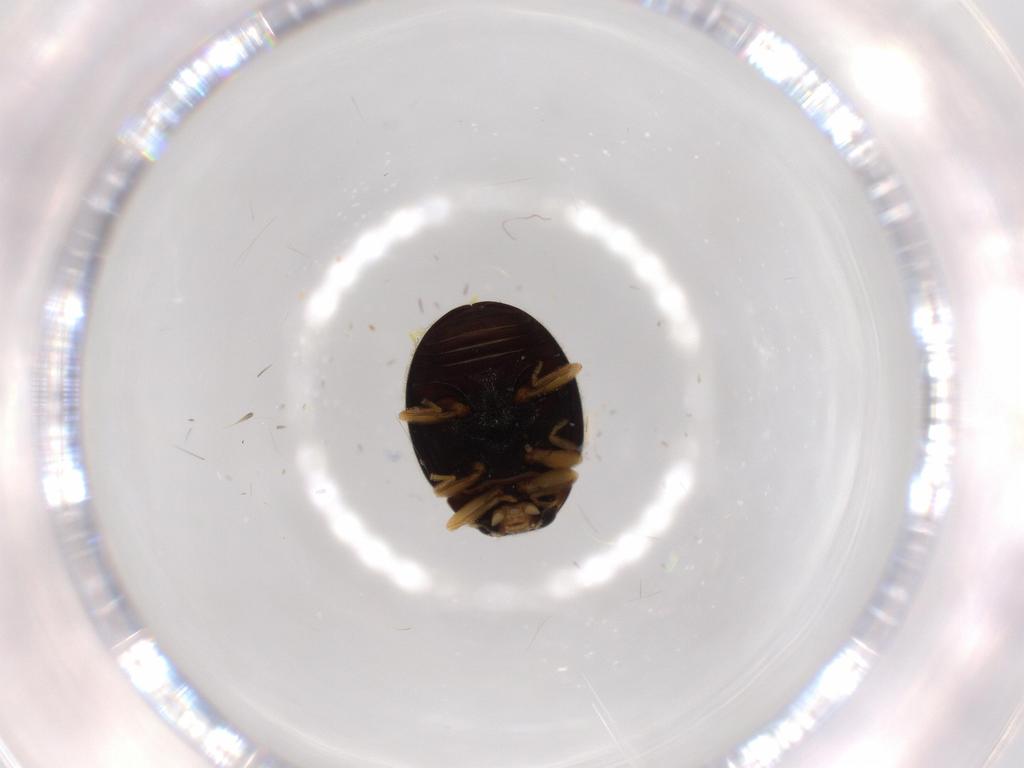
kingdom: Animalia
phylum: Arthropoda
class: Insecta
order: Coleoptera
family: Coccinellidae
